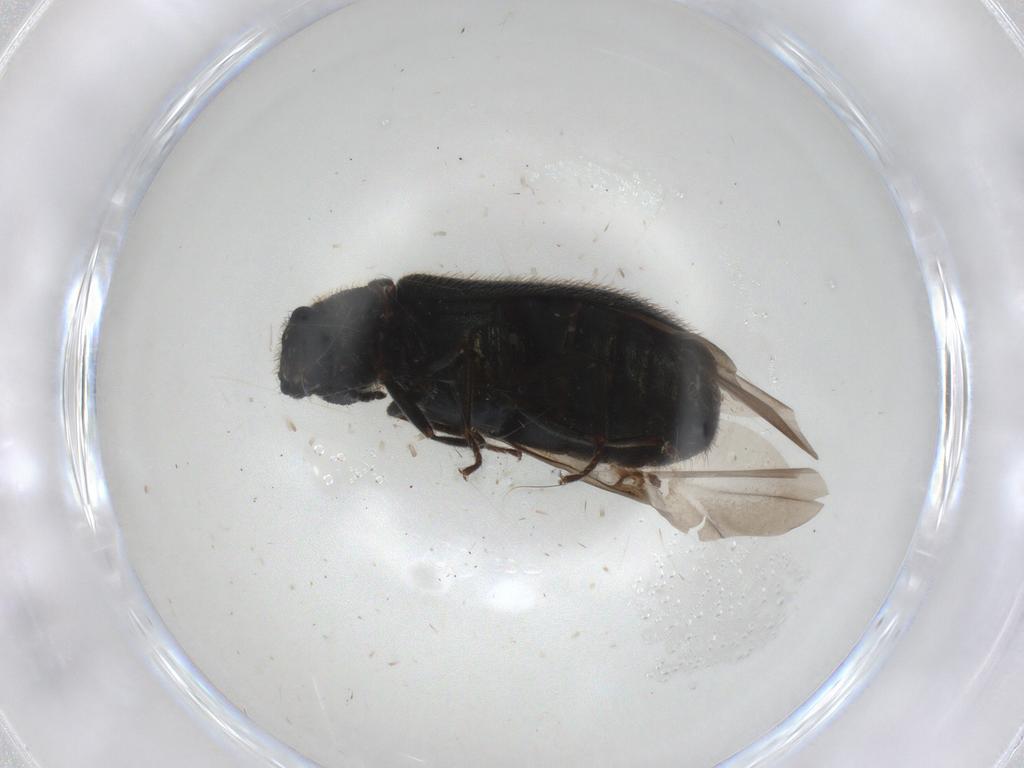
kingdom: Animalia
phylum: Arthropoda
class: Insecta
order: Coleoptera
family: Melyridae
